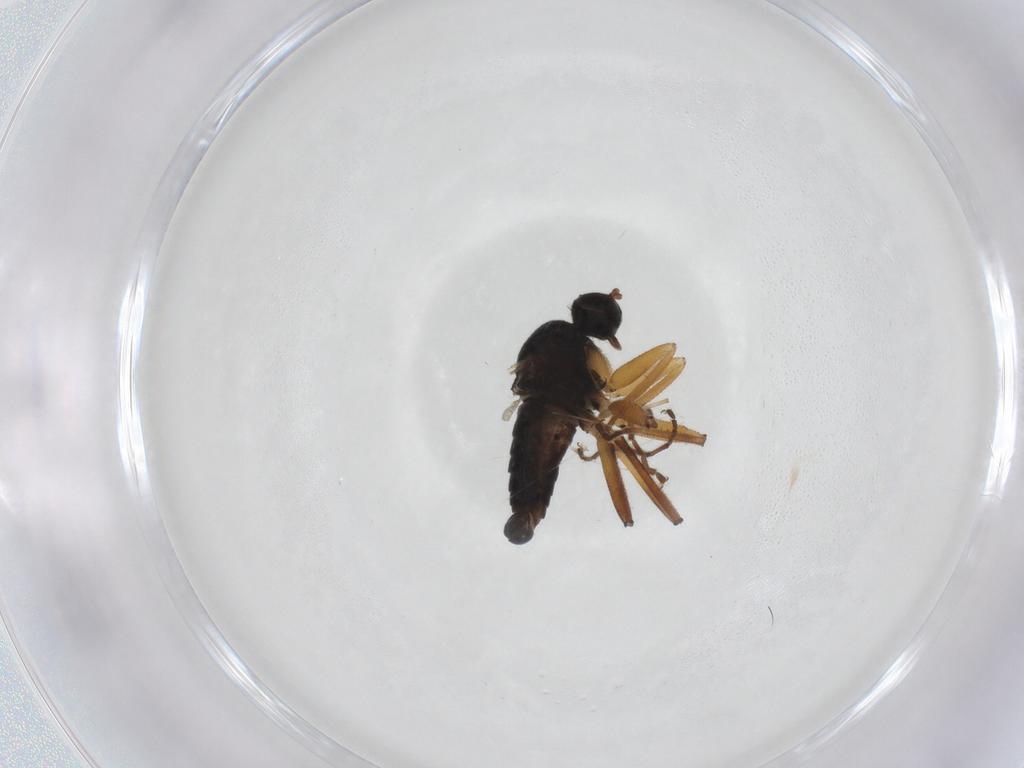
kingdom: Animalia
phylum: Arthropoda
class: Insecta
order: Diptera
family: Hybotidae
